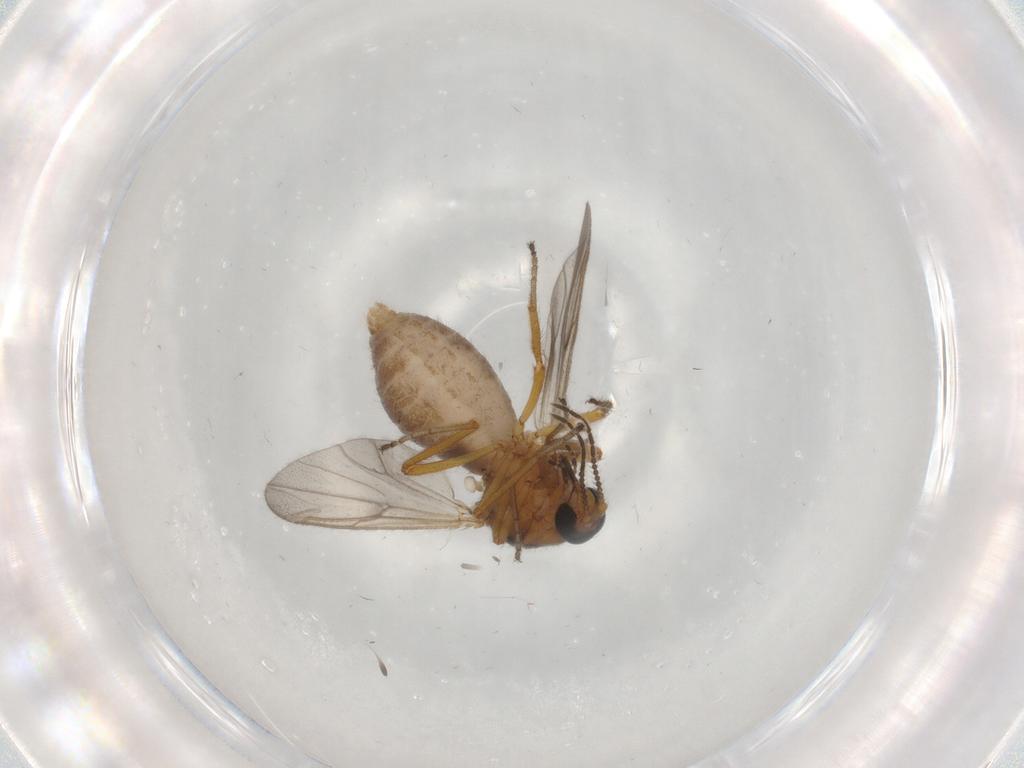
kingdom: Animalia
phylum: Arthropoda
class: Insecta
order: Diptera
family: Ceratopogonidae
